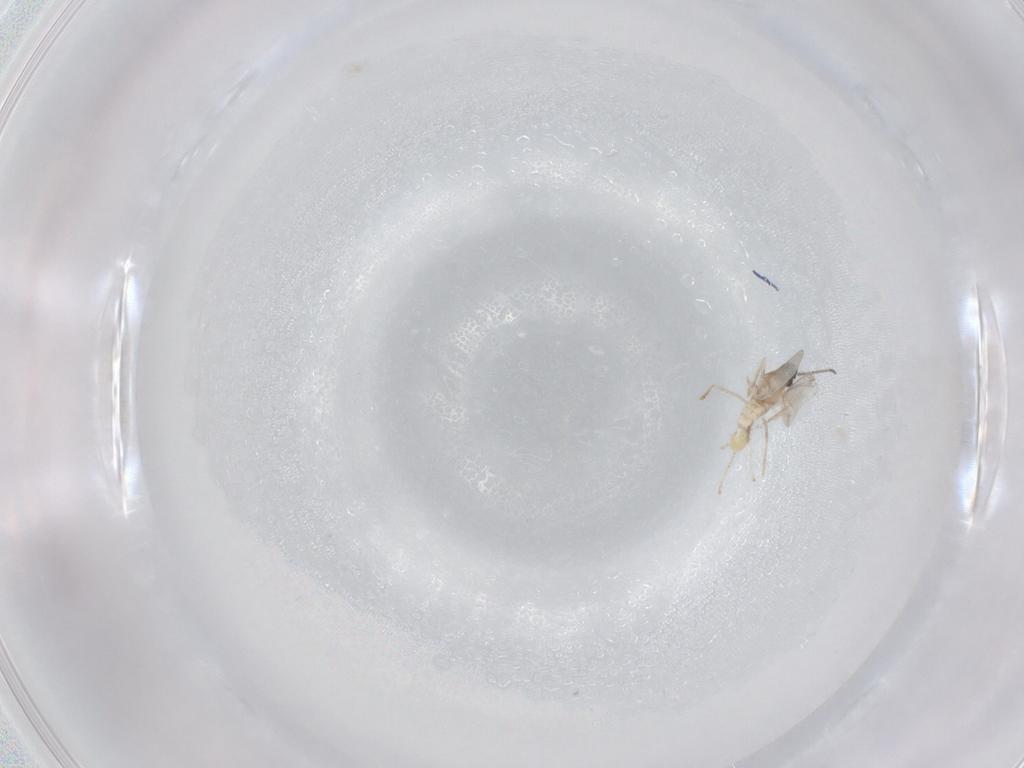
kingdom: Animalia
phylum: Arthropoda
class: Insecta
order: Diptera
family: Cecidomyiidae
